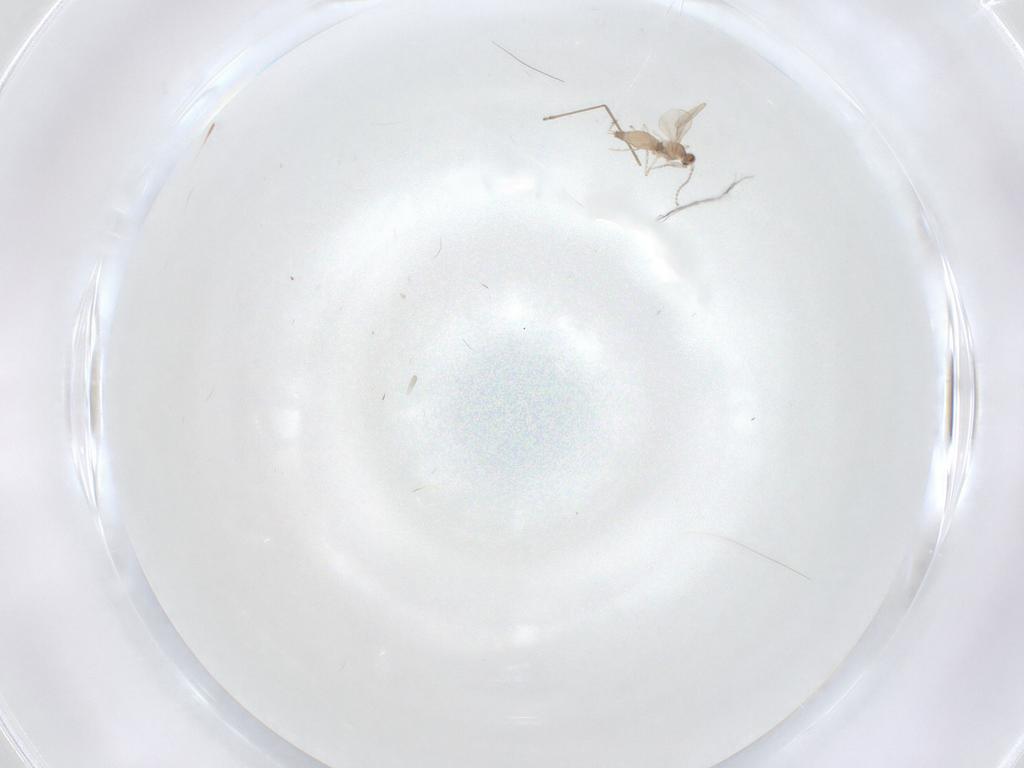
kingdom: Animalia
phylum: Arthropoda
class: Insecta
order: Diptera
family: Cecidomyiidae
